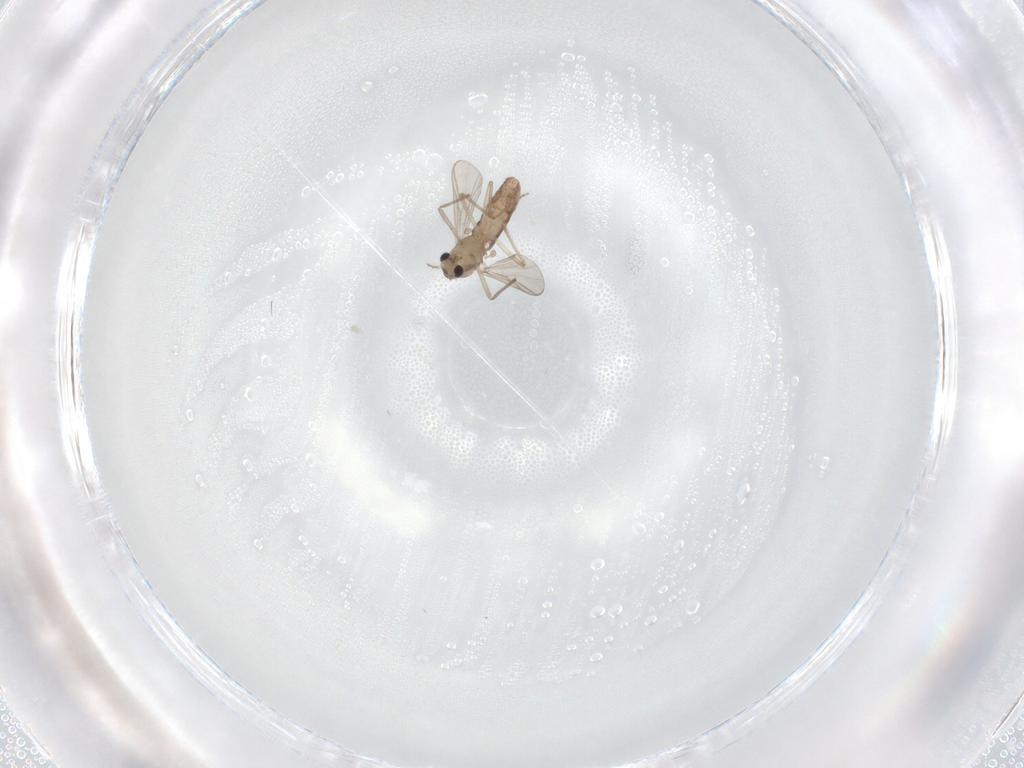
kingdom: Animalia
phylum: Arthropoda
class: Insecta
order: Diptera
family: Chironomidae
